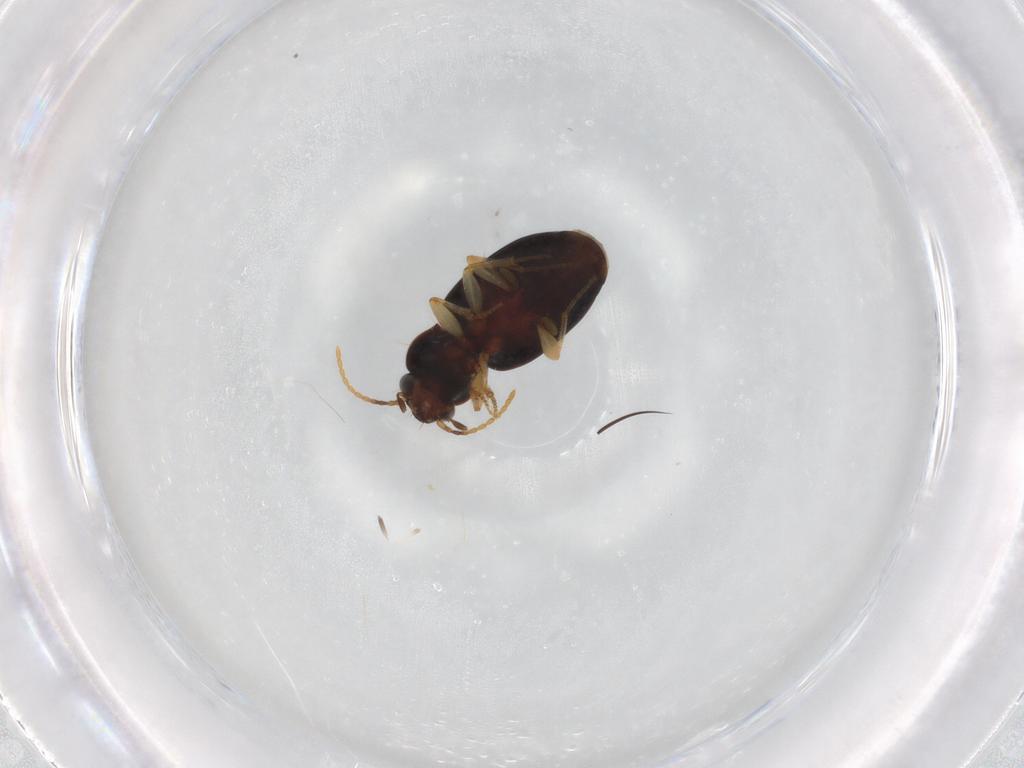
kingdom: Animalia
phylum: Arthropoda
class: Insecta
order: Coleoptera
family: Carabidae
